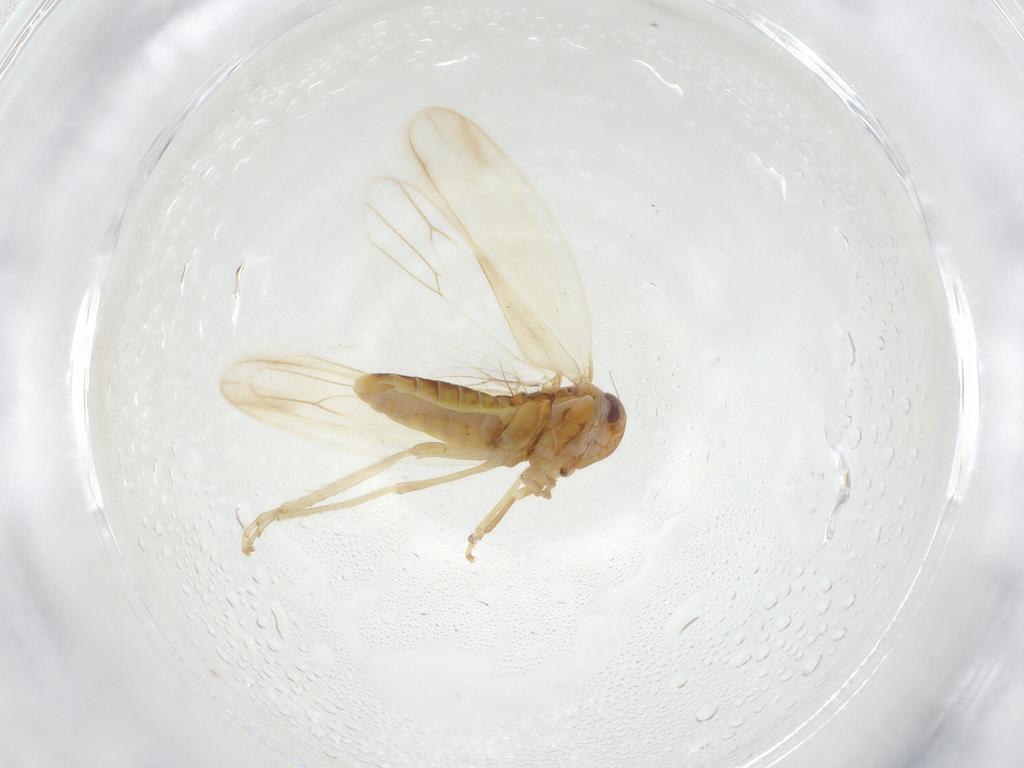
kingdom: Animalia
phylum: Arthropoda
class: Insecta
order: Hemiptera
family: Cicadellidae
